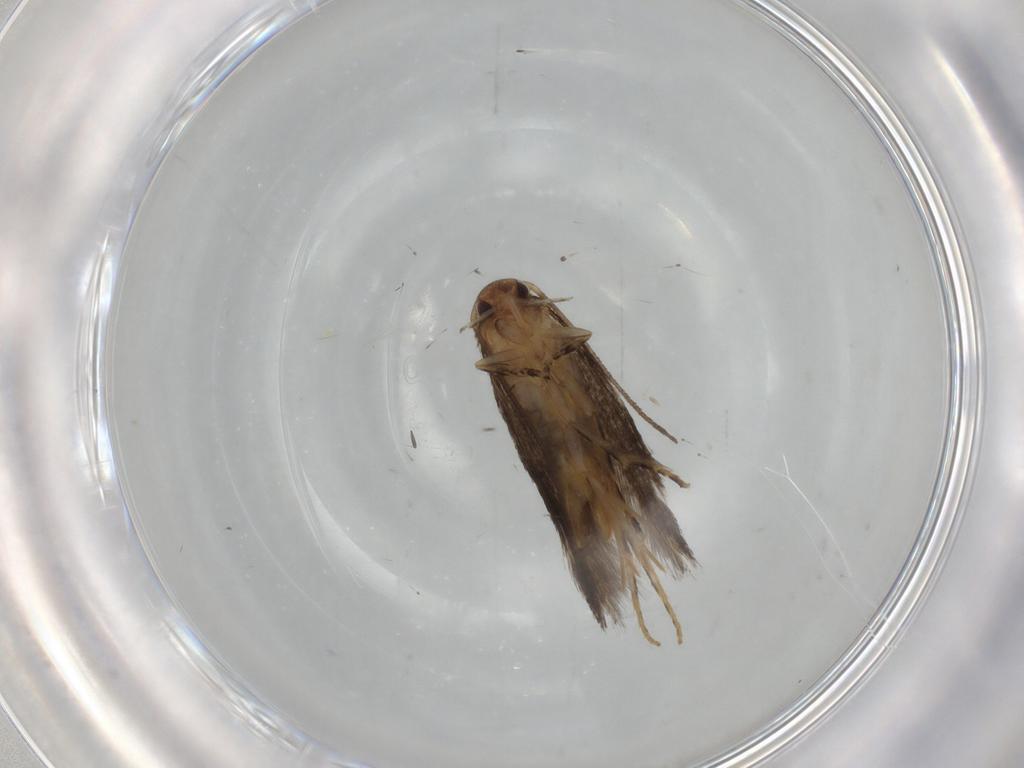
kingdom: Animalia
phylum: Arthropoda
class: Insecta
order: Lepidoptera
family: Elachistidae
